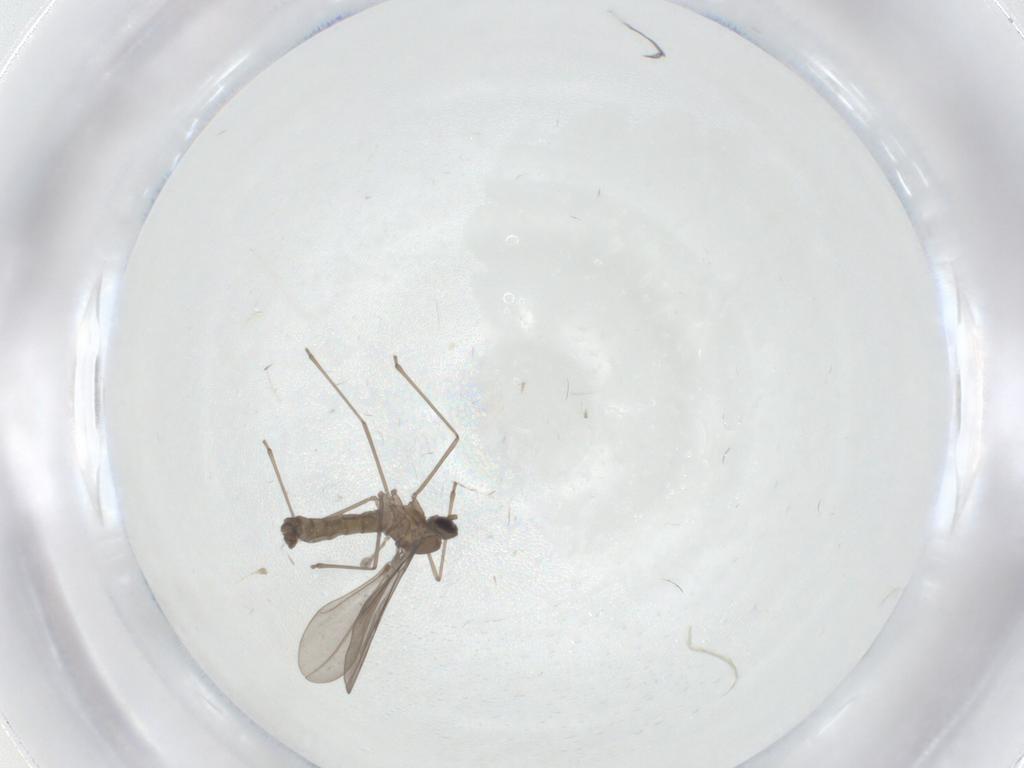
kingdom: Animalia
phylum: Arthropoda
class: Insecta
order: Diptera
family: Cecidomyiidae
